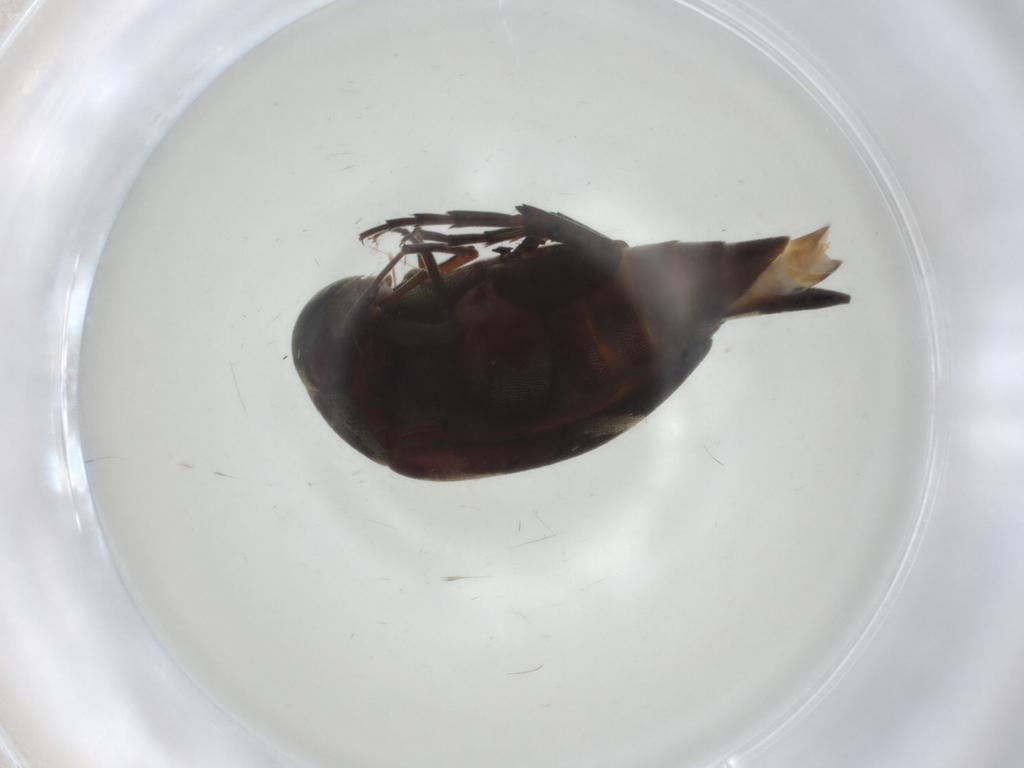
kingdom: Animalia
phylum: Arthropoda
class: Insecta
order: Coleoptera
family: Mordellidae
